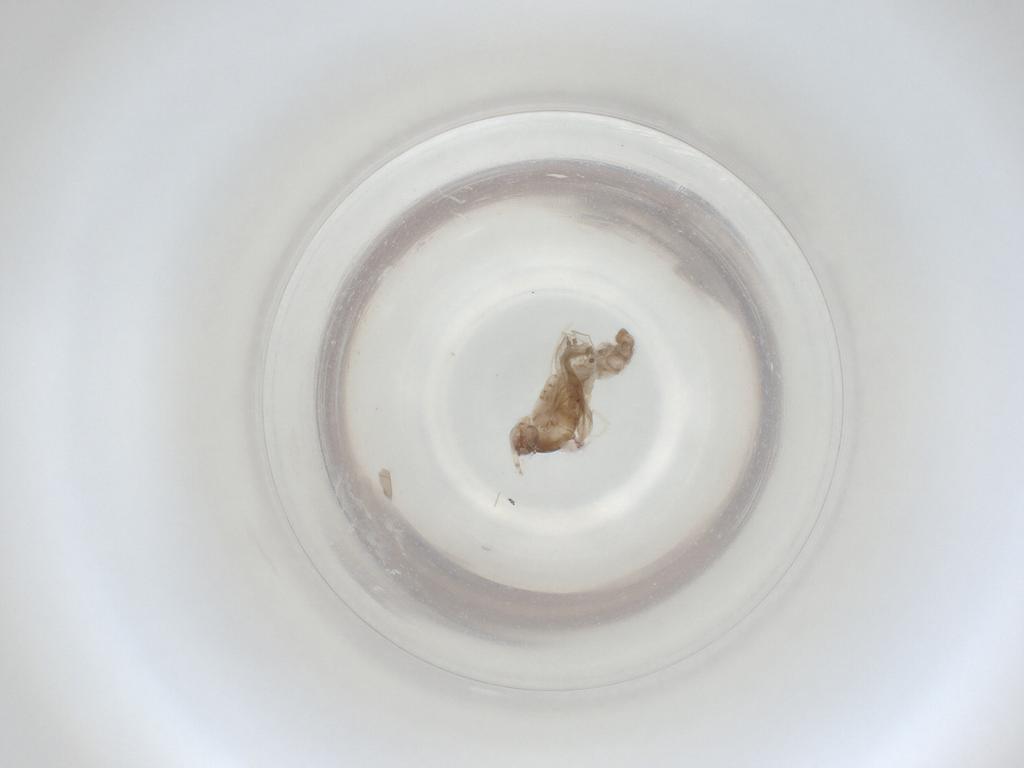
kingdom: Animalia
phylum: Arthropoda
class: Insecta
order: Diptera
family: Cecidomyiidae
